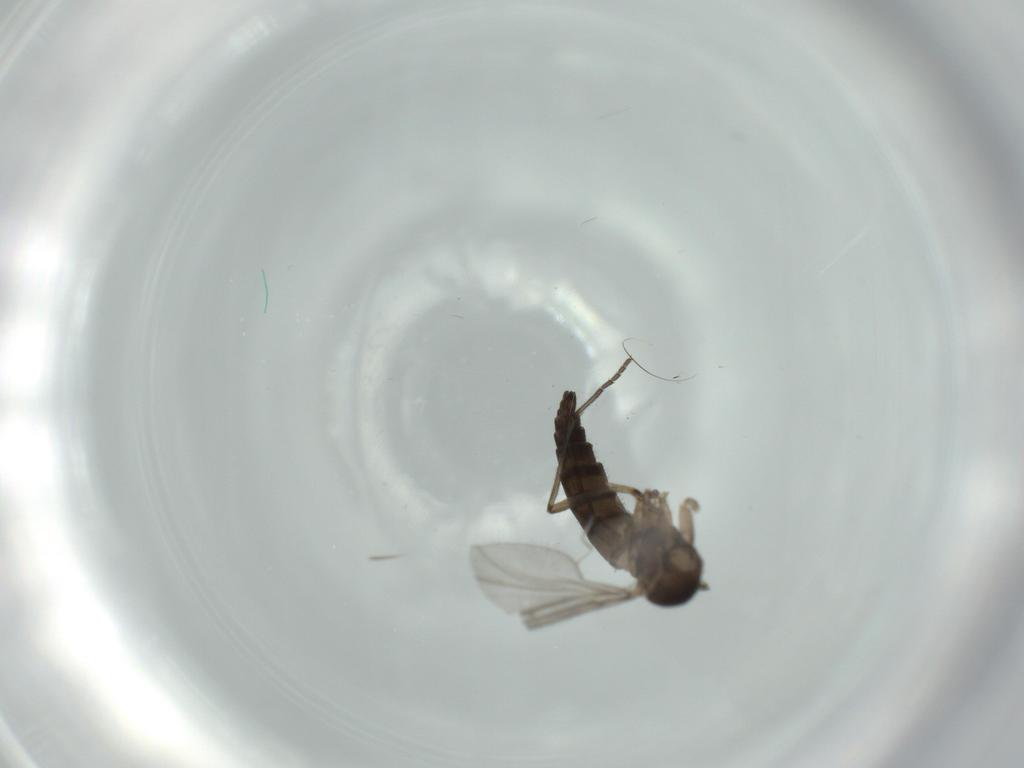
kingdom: Animalia
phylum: Arthropoda
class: Insecta
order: Diptera
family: Sciaridae
